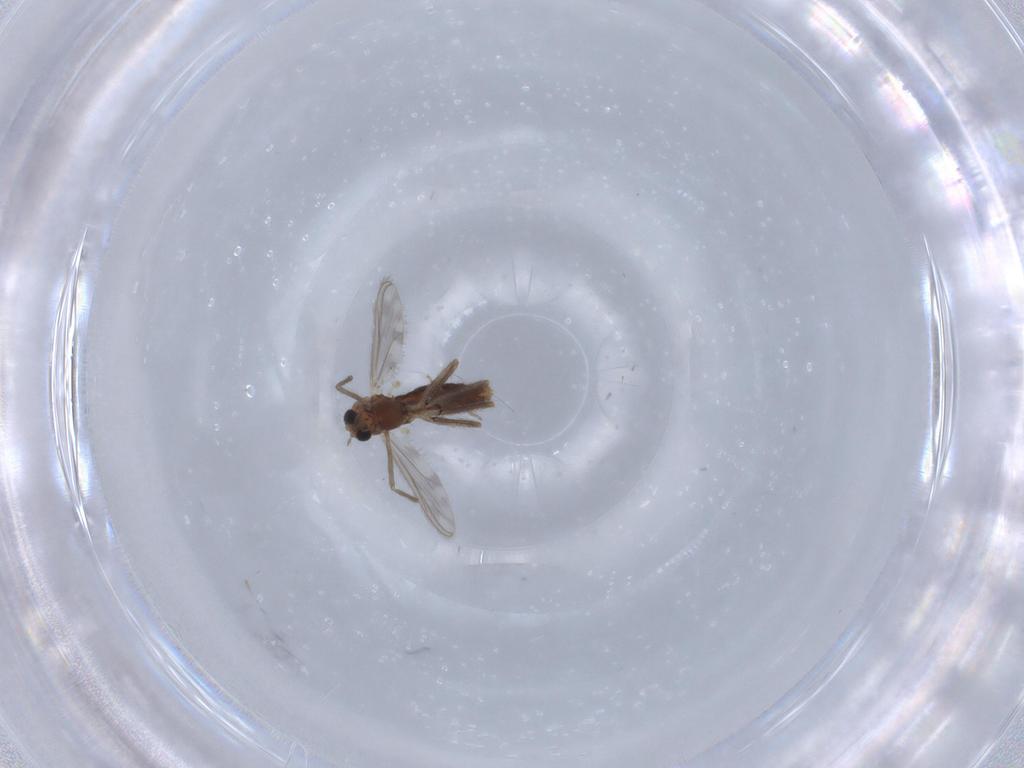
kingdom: Animalia
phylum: Arthropoda
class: Insecta
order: Diptera
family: Chironomidae
